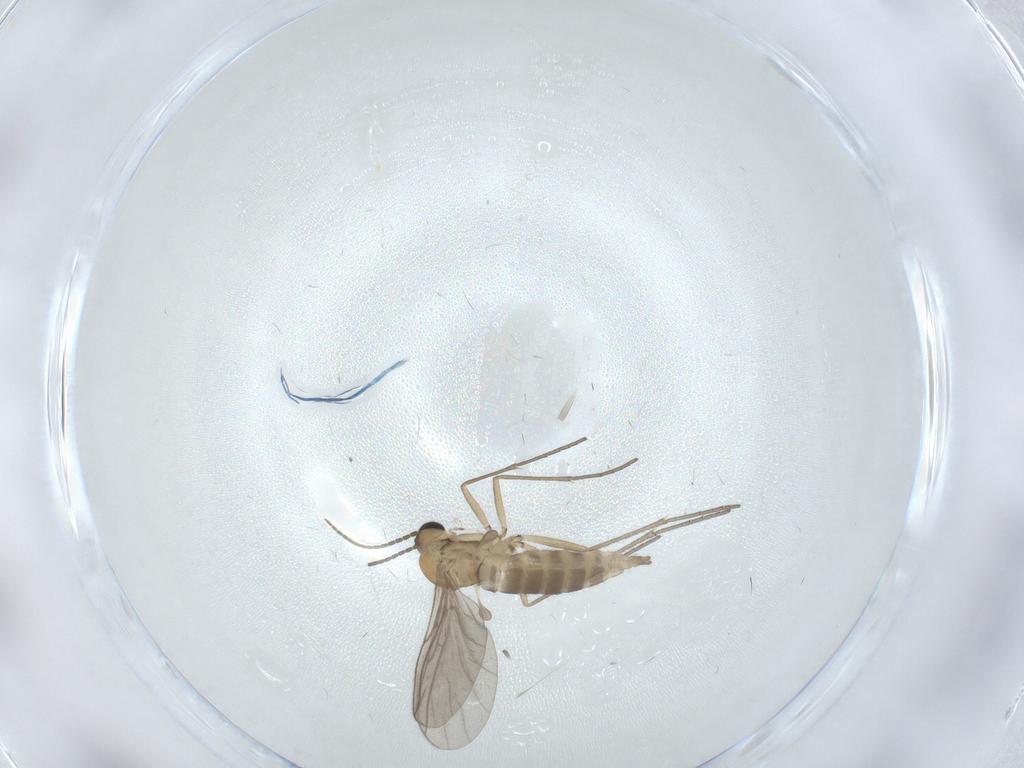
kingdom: Animalia
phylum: Arthropoda
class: Insecta
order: Diptera
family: Sciaridae
